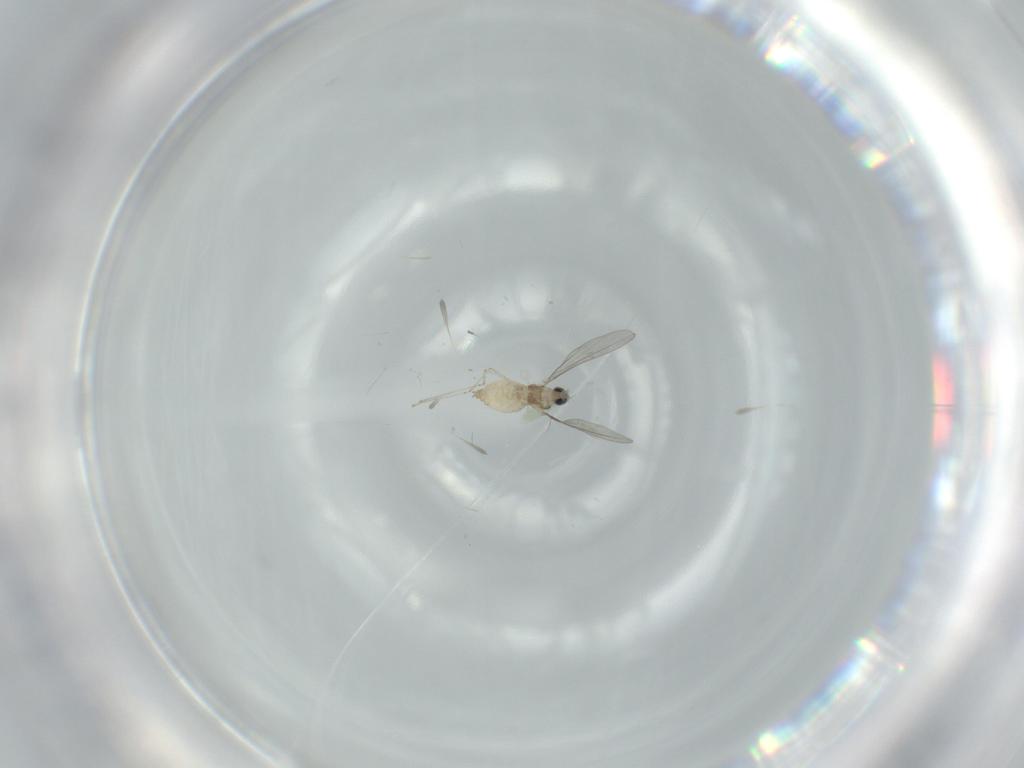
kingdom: Animalia
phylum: Arthropoda
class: Insecta
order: Diptera
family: Cecidomyiidae
